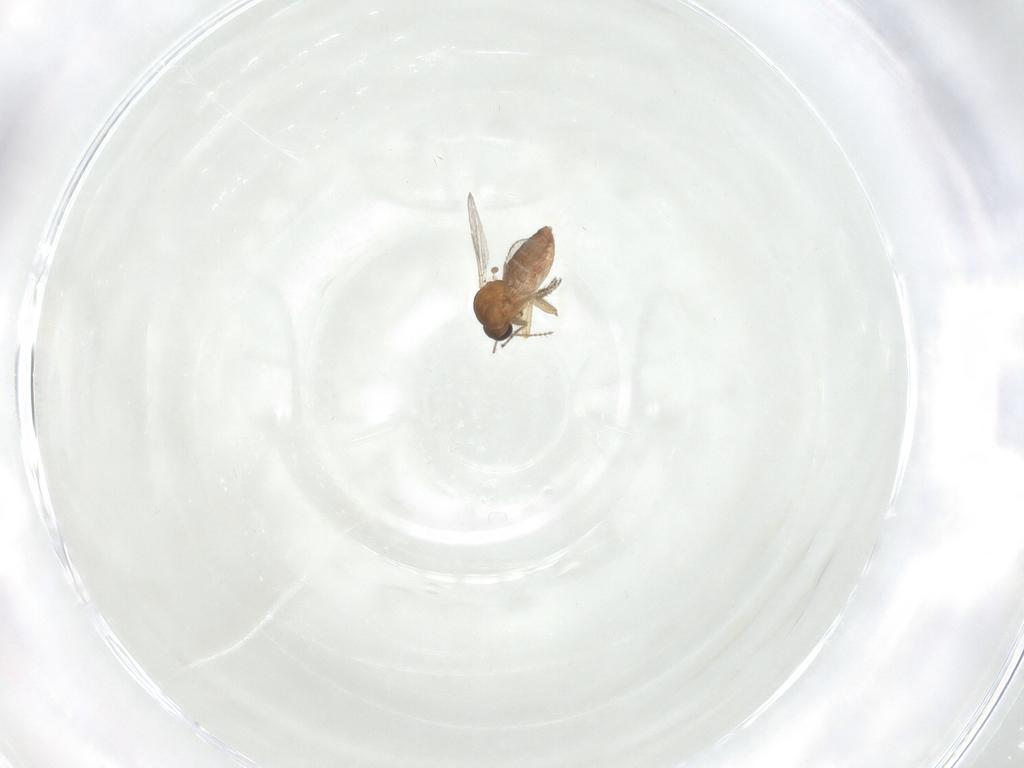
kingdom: Animalia
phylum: Arthropoda
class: Insecta
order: Diptera
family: Ceratopogonidae
